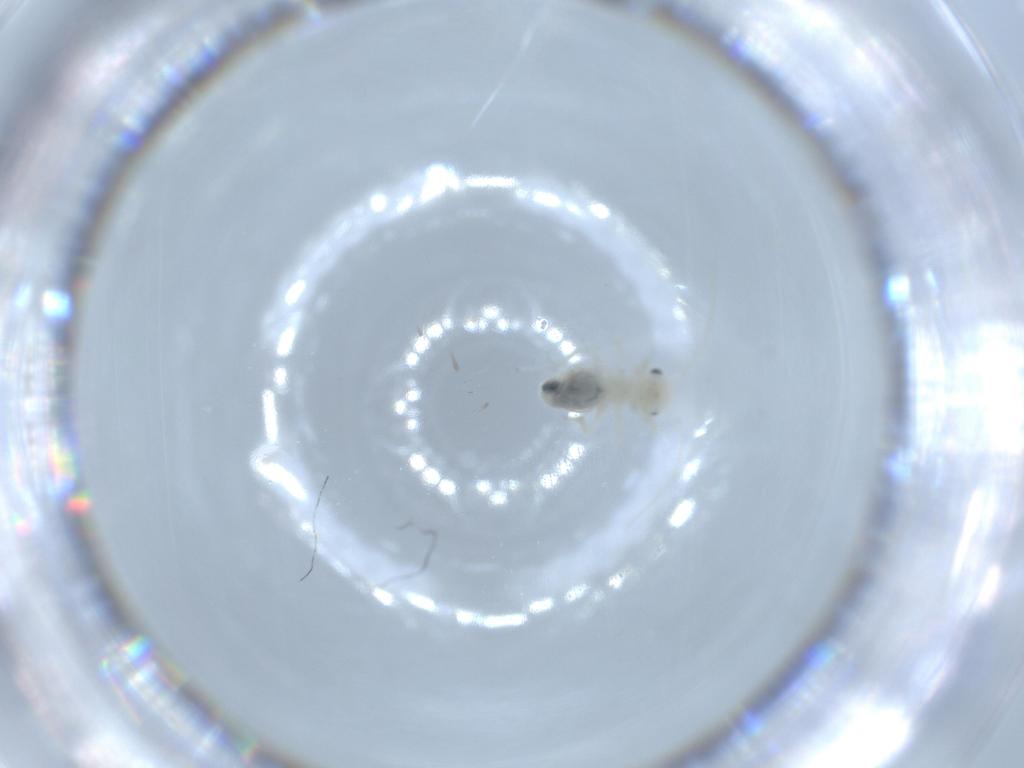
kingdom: Animalia
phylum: Arthropoda
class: Insecta
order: Psocodea
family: Caeciliusidae
